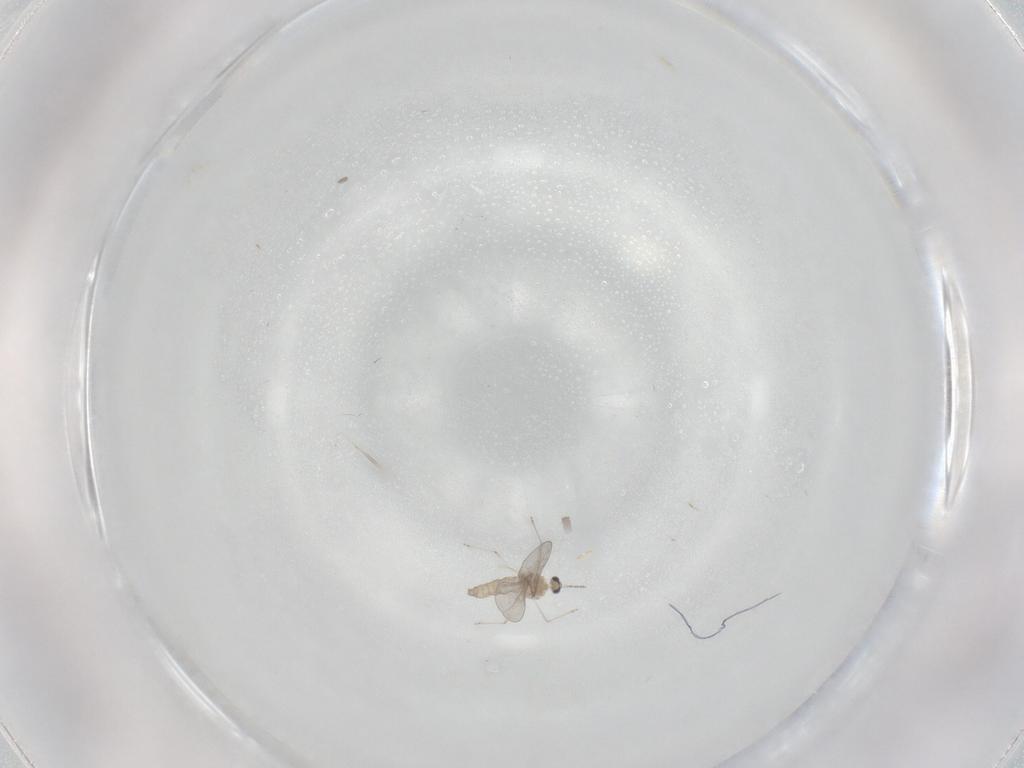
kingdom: Animalia
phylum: Arthropoda
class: Insecta
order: Diptera
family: Cecidomyiidae
